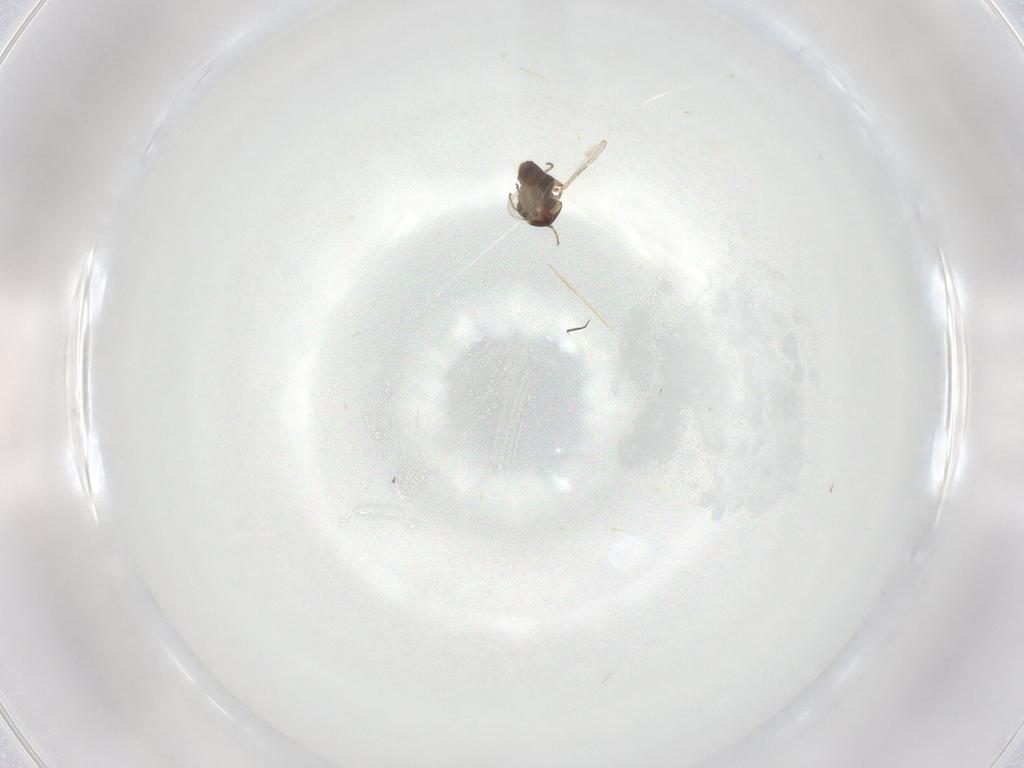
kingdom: Animalia
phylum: Arthropoda
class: Insecta
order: Diptera
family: Ceratopogonidae
